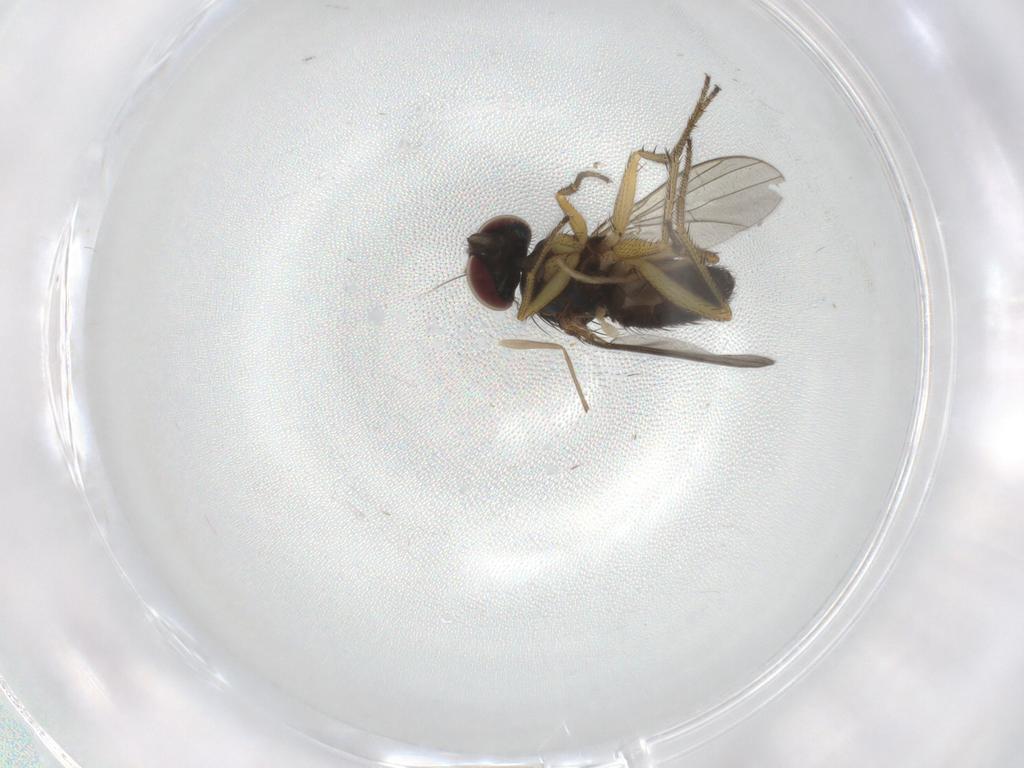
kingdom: Animalia
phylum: Arthropoda
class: Insecta
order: Diptera
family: Chironomidae
